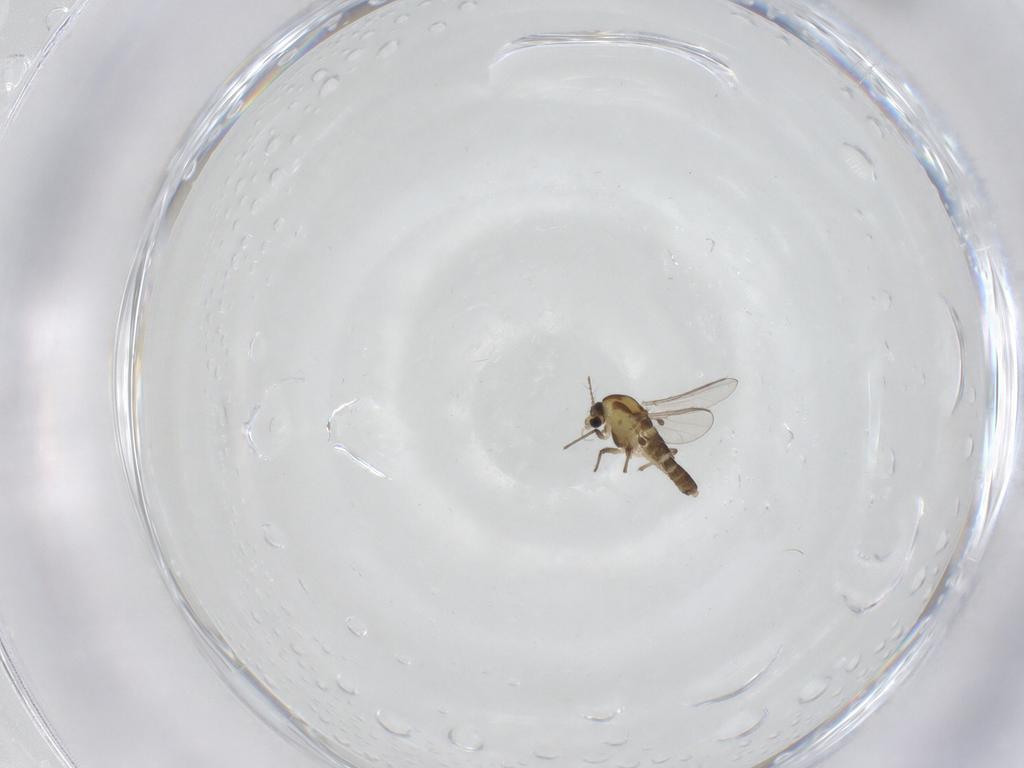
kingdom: Animalia
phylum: Arthropoda
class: Insecta
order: Diptera
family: Chironomidae
